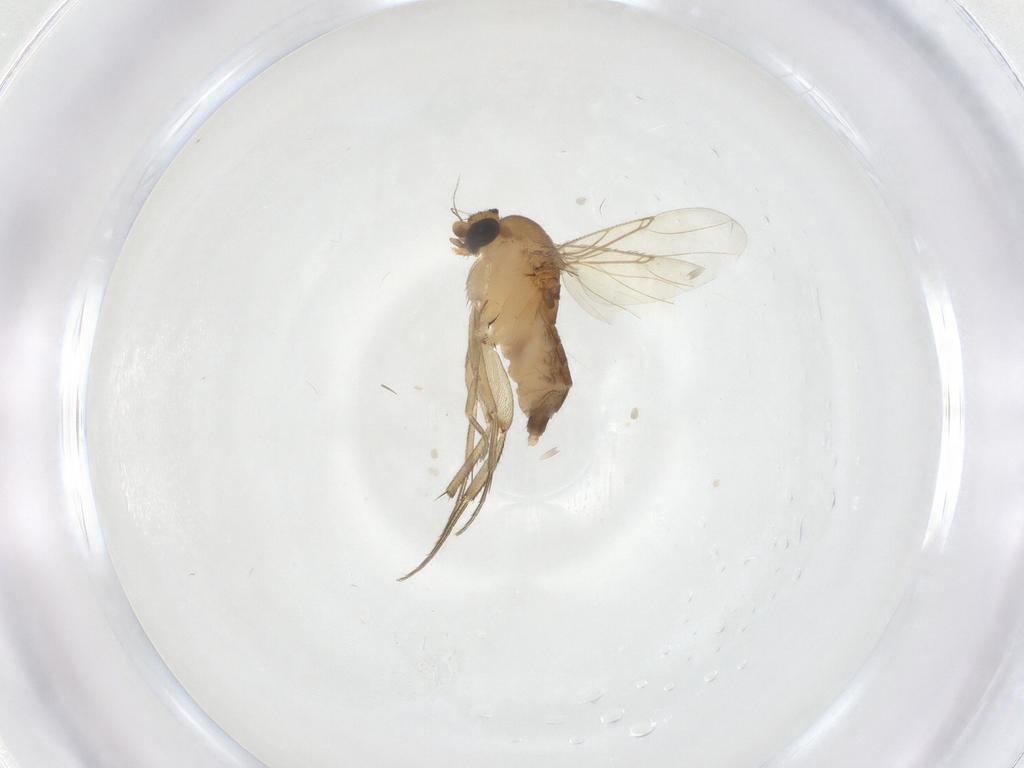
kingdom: Animalia
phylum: Arthropoda
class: Insecta
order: Diptera
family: Phoridae
